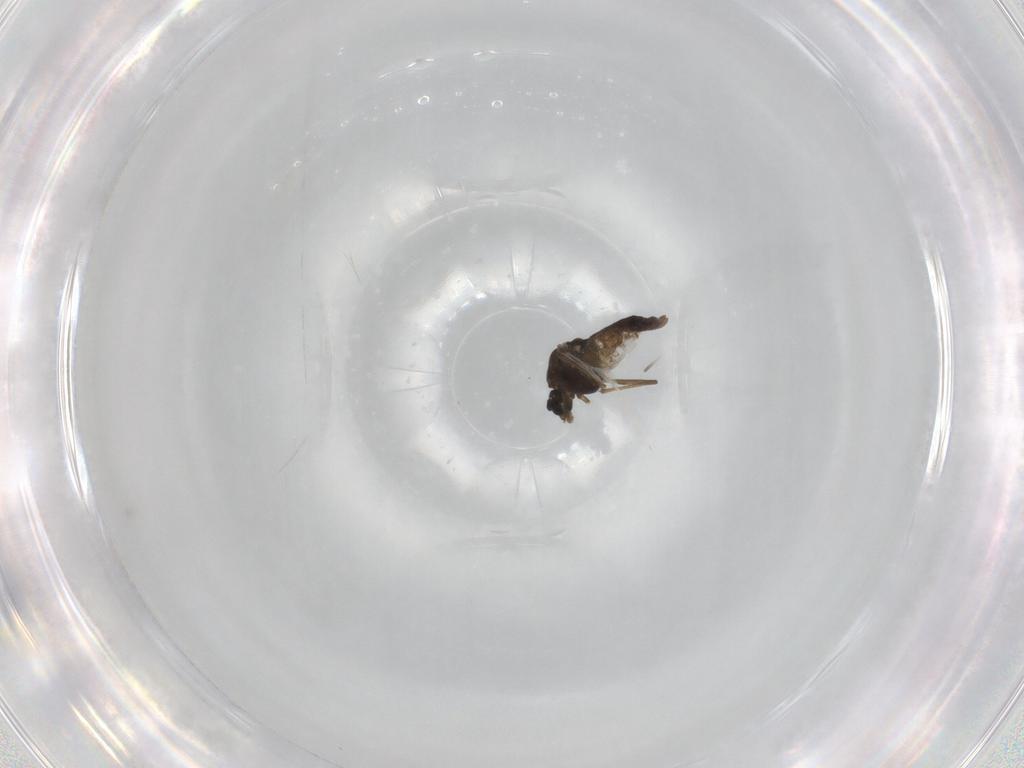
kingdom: Animalia
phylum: Arthropoda
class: Insecta
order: Diptera
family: Chironomidae
